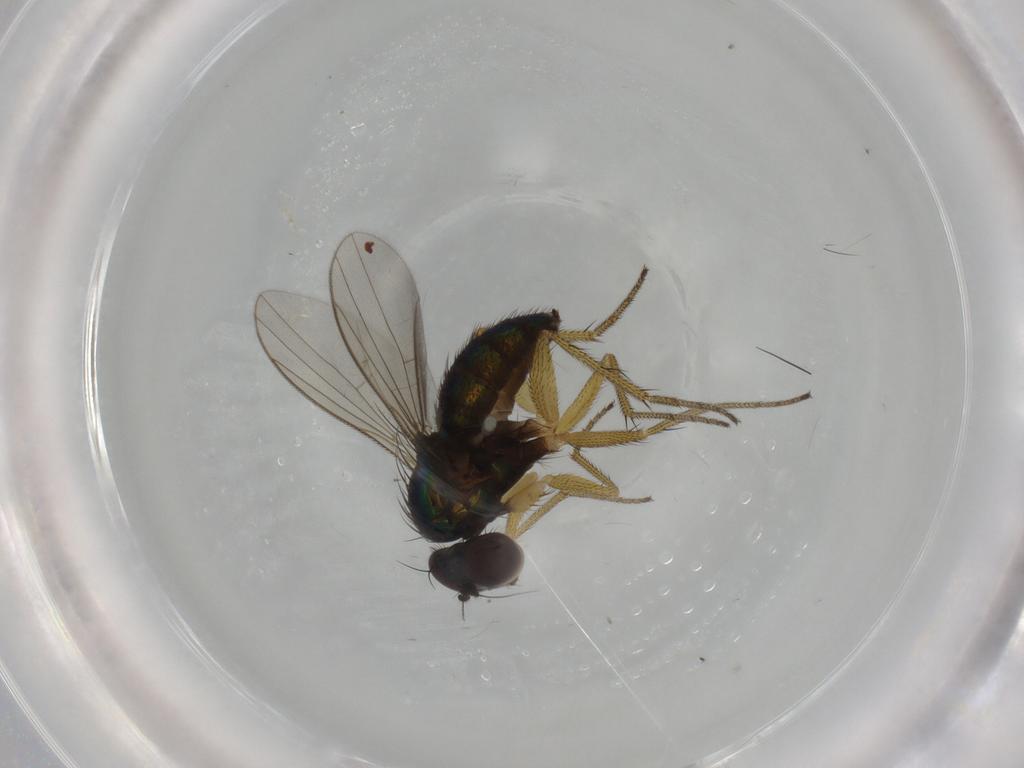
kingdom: Animalia
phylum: Arthropoda
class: Insecta
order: Diptera
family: Dolichopodidae
